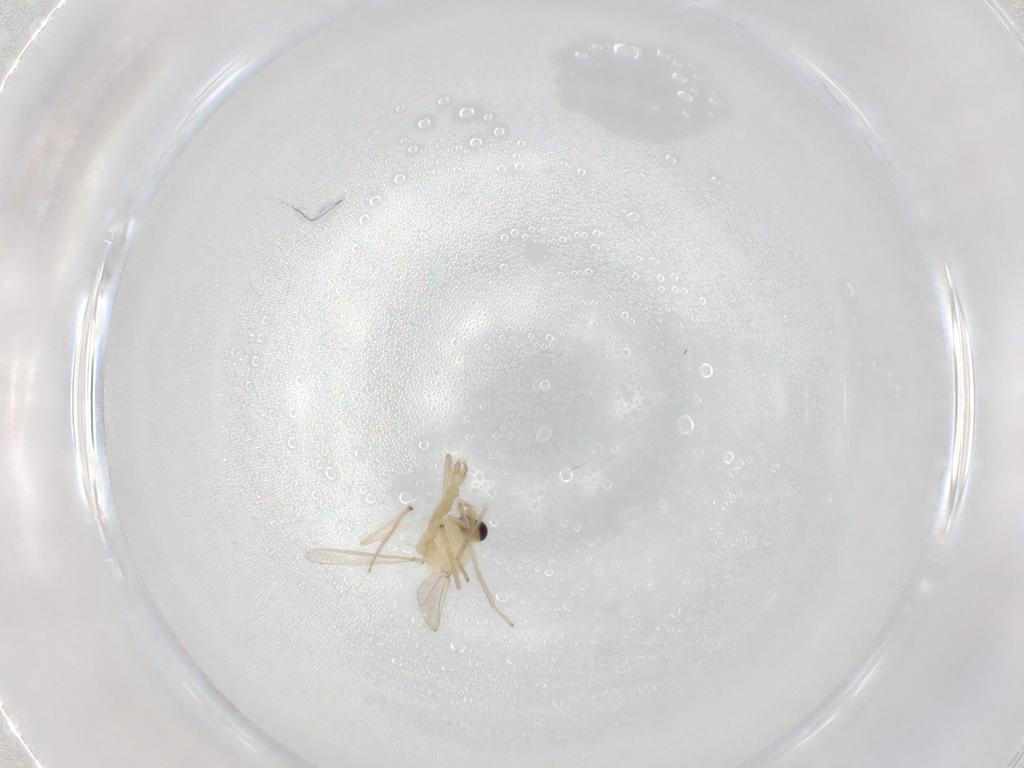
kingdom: Animalia
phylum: Arthropoda
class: Insecta
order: Diptera
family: Chironomidae
